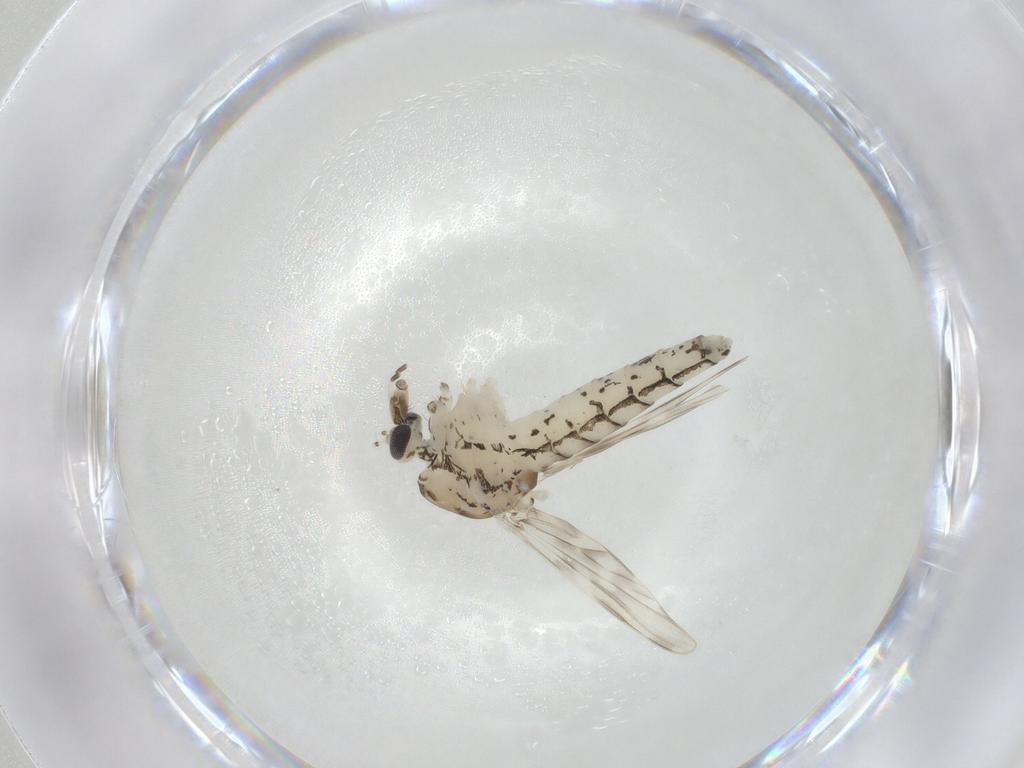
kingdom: Animalia
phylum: Arthropoda
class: Insecta
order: Diptera
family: Chaoboridae
